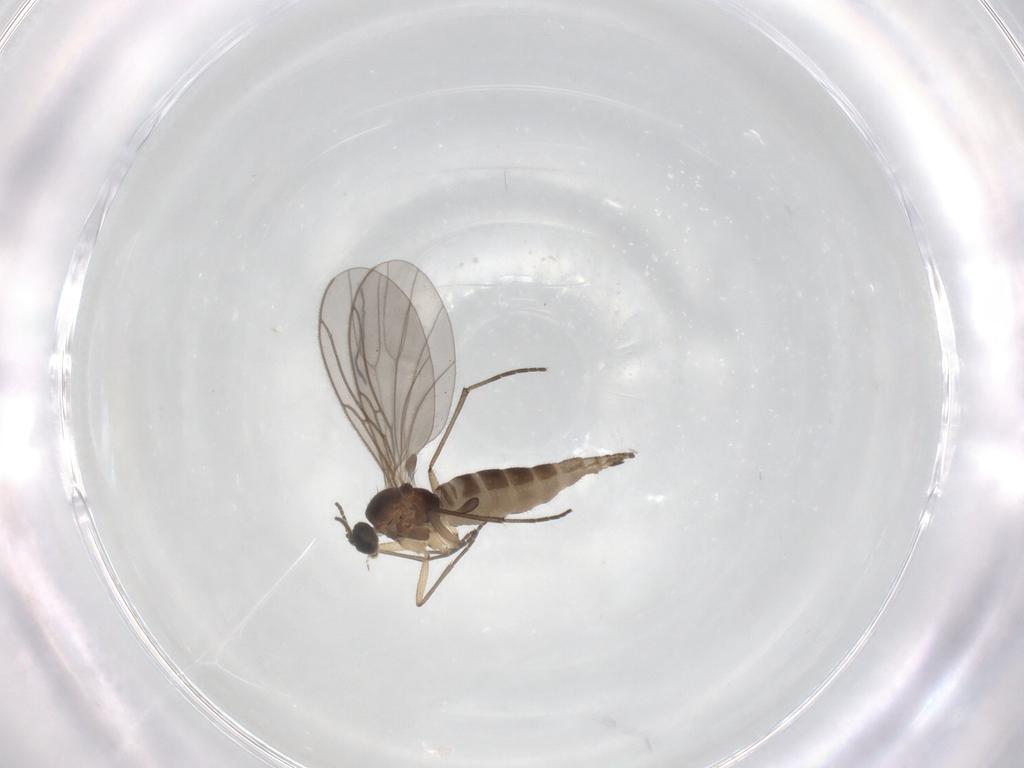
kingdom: Animalia
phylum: Arthropoda
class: Insecta
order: Diptera
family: Sciaridae
